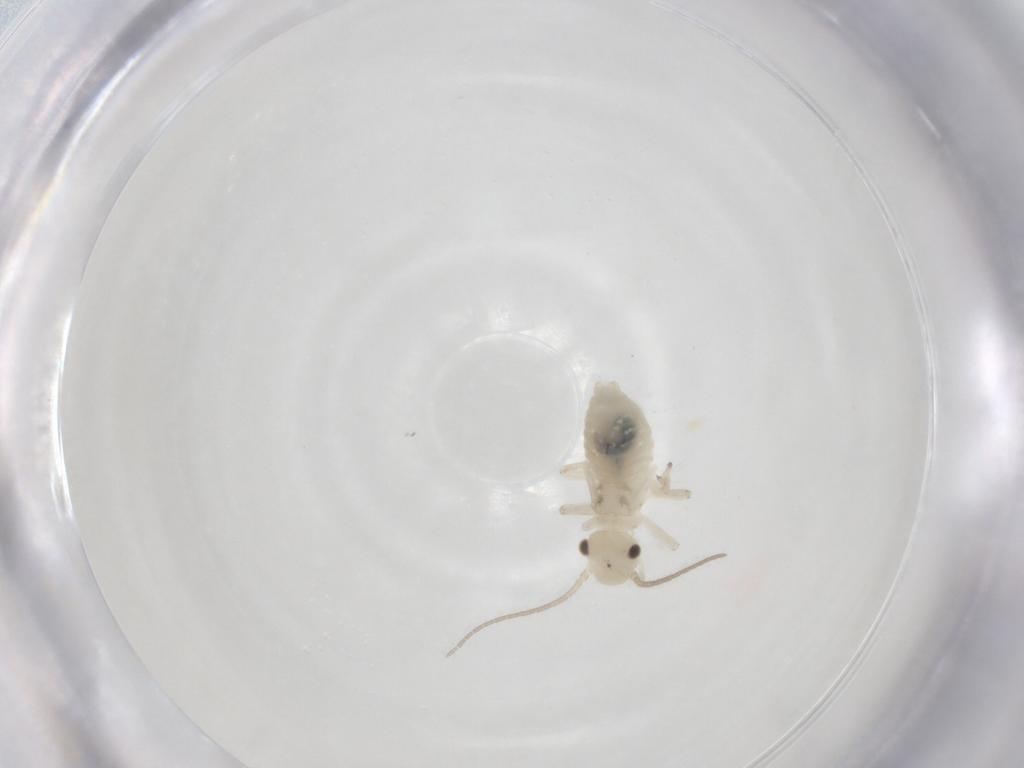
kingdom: Animalia
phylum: Arthropoda
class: Insecta
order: Psocodea
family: Caeciliusidae
